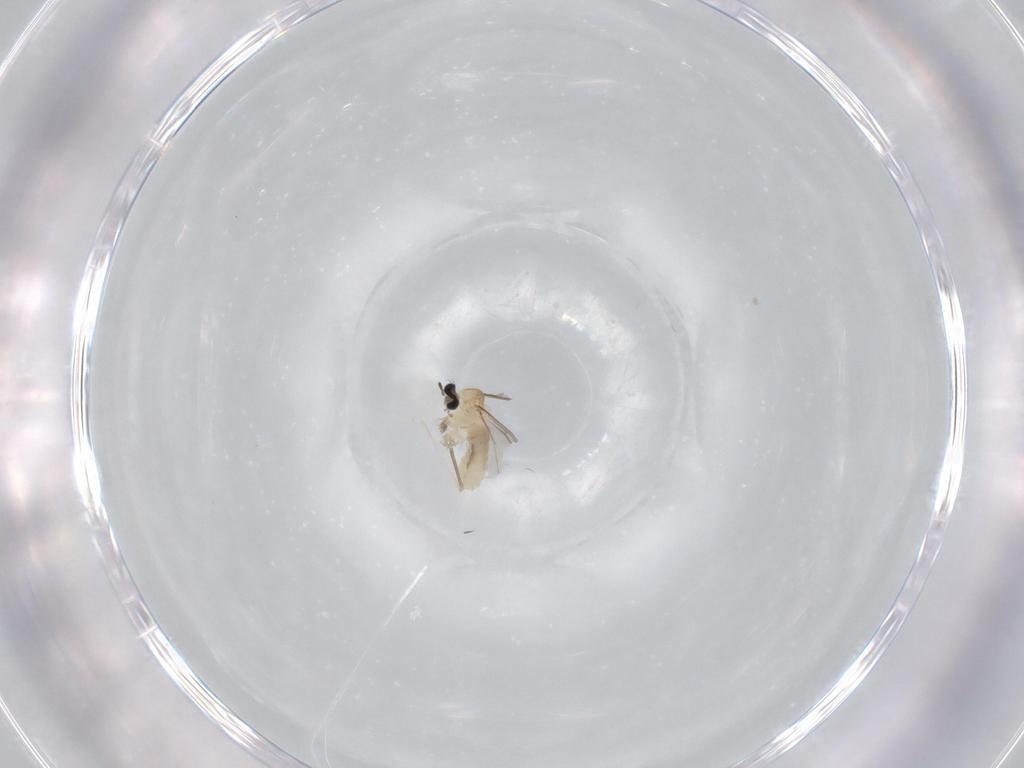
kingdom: Animalia
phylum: Arthropoda
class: Insecta
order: Diptera
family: Cecidomyiidae
